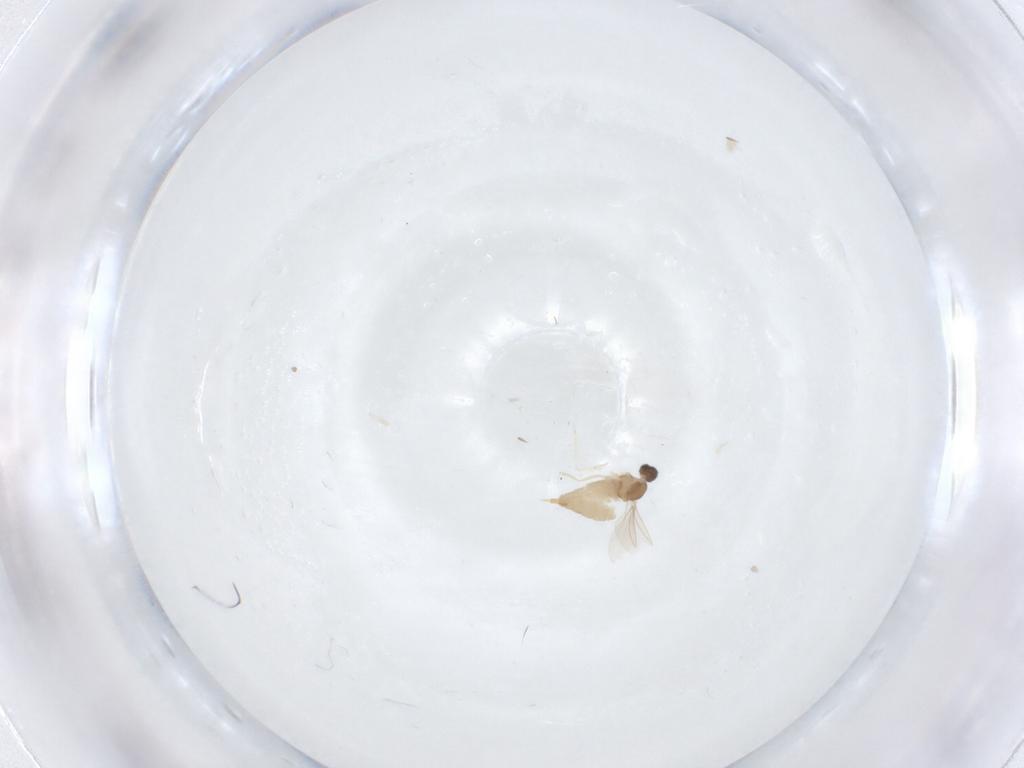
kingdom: Animalia
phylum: Arthropoda
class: Insecta
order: Diptera
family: Cecidomyiidae
